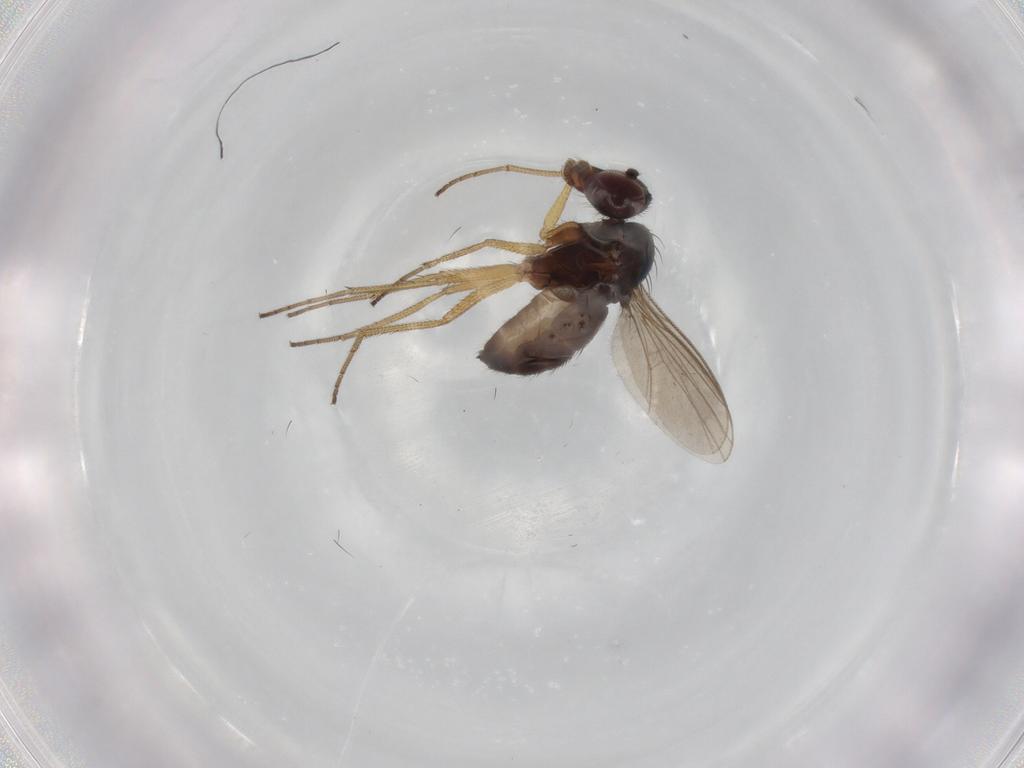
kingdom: Animalia
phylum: Arthropoda
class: Insecta
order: Diptera
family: Dolichopodidae
